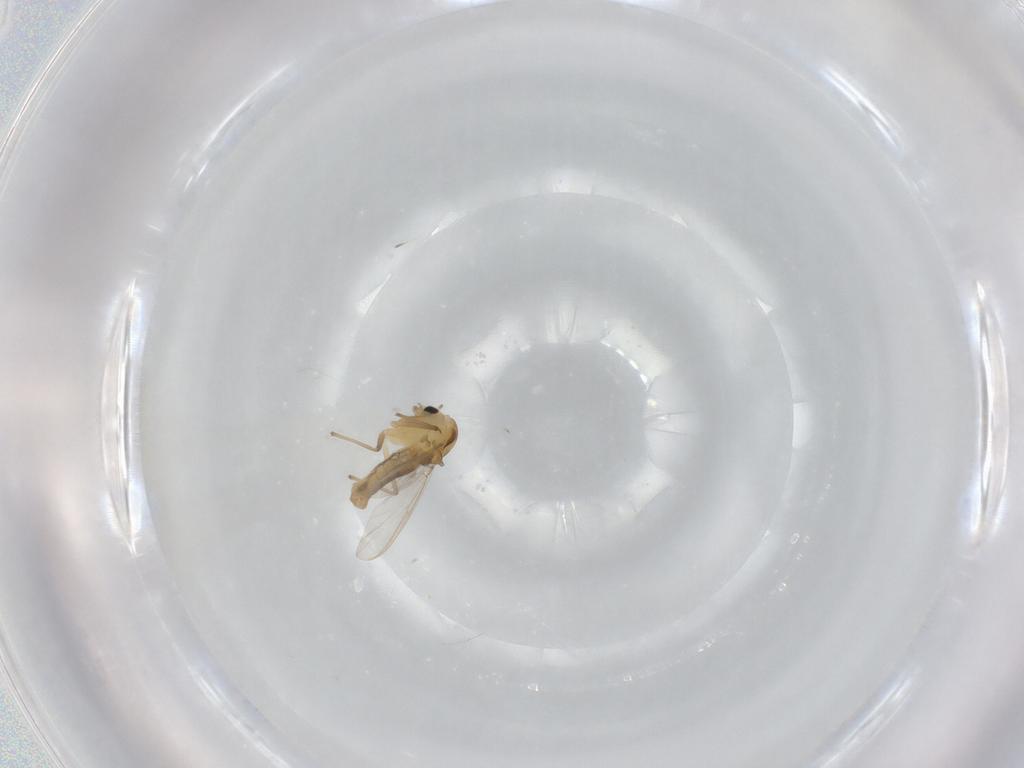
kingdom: Animalia
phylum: Arthropoda
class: Insecta
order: Diptera
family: Chironomidae
